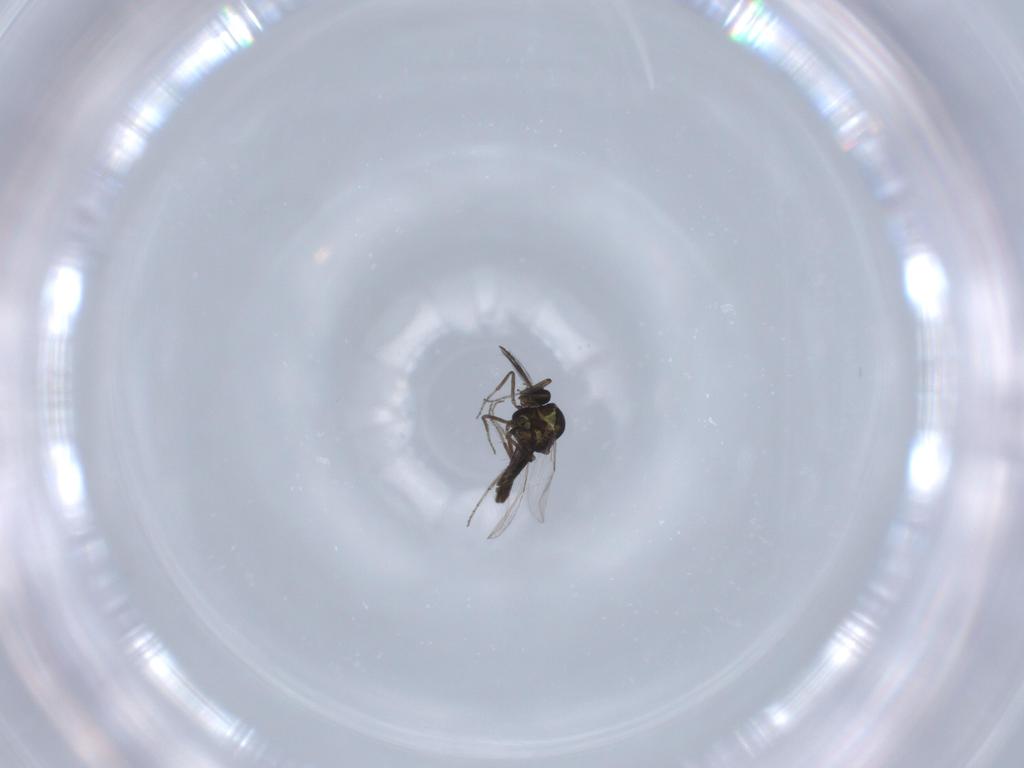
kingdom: Animalia
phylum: Arthropoda
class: Insecta
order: Diptera
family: Ceratopogonidae
